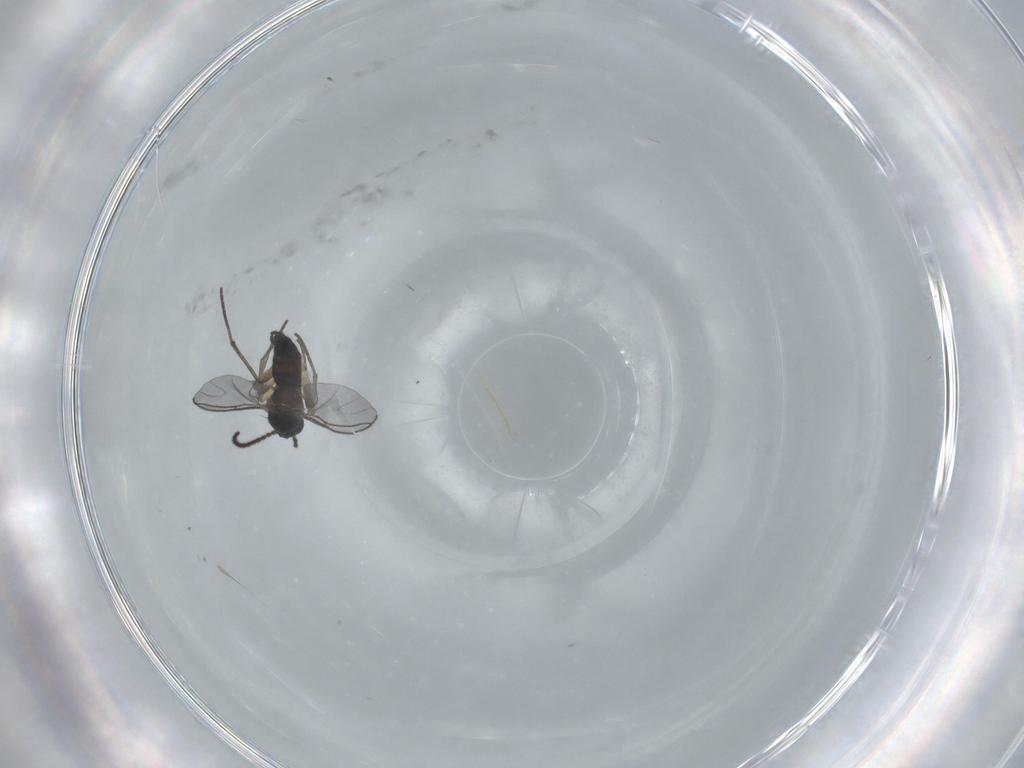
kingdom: Animalia
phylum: Arthropoda
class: Insecta
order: Diptera
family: Sciaridae
